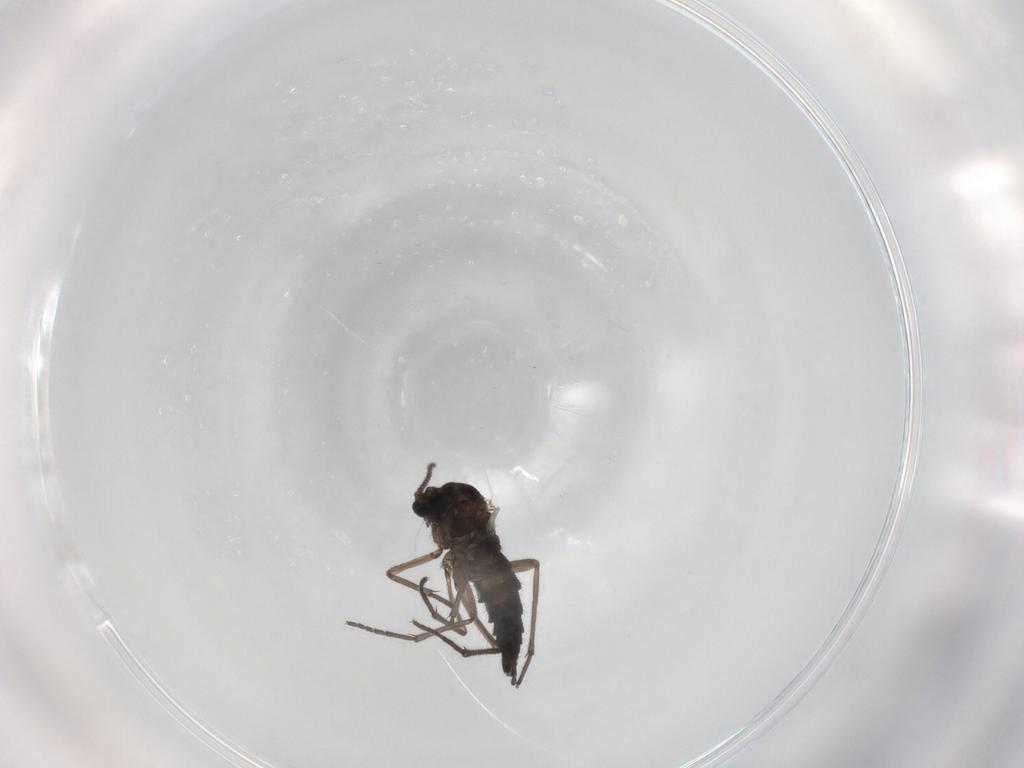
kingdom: Animalia
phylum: Arthropoda
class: Insecta
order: Diptera
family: Sciaridae
